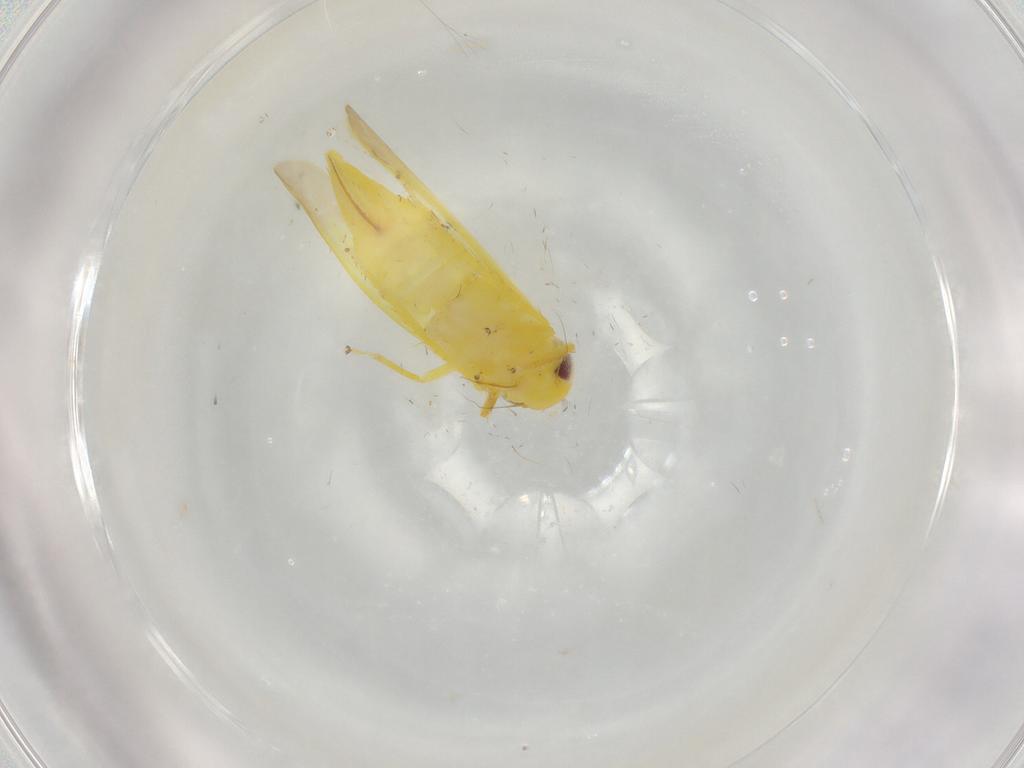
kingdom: Animalia
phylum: Arthropoda
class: Insecta
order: Hemiptera
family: Cicadellidae
